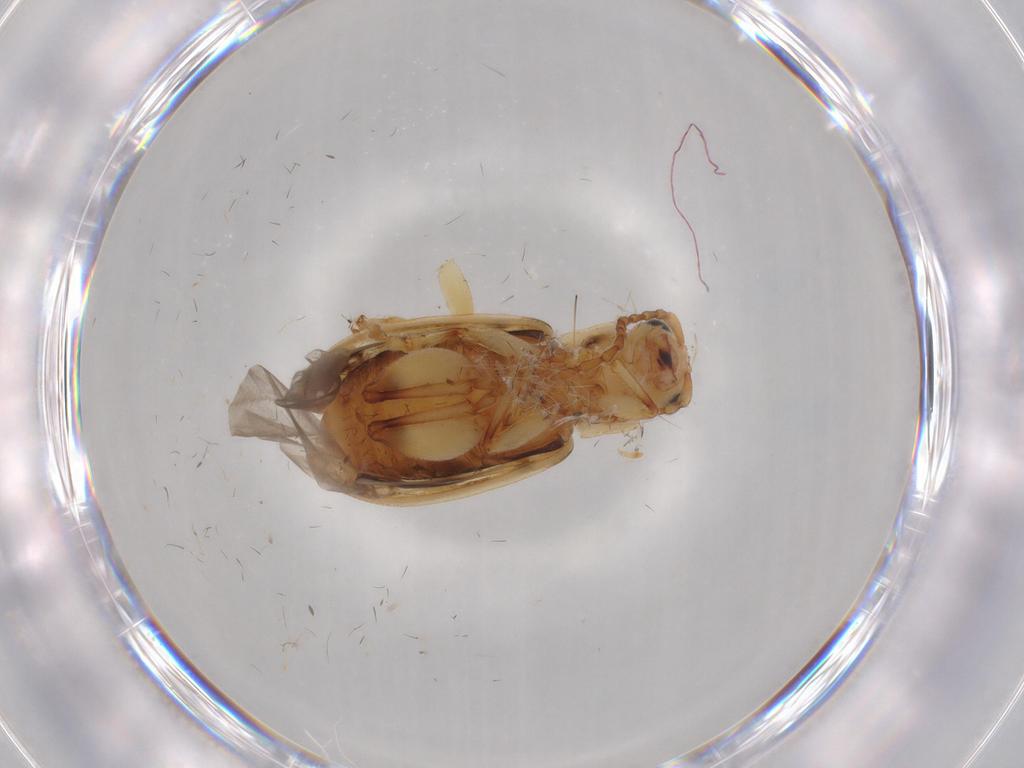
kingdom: Animalia
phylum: Arthropoda
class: Insecta
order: Coleoptera
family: Chrysomelidae
